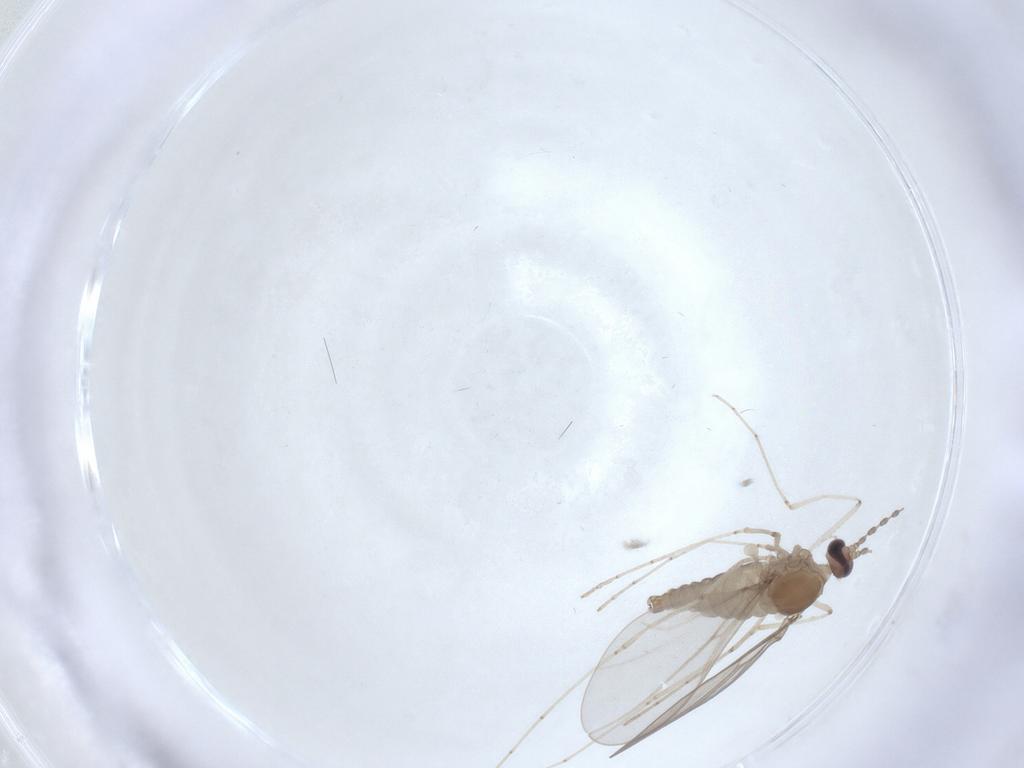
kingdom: Animalia
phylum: Arthropoda
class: Insecta
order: Diptera
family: Cecidomyiidae
